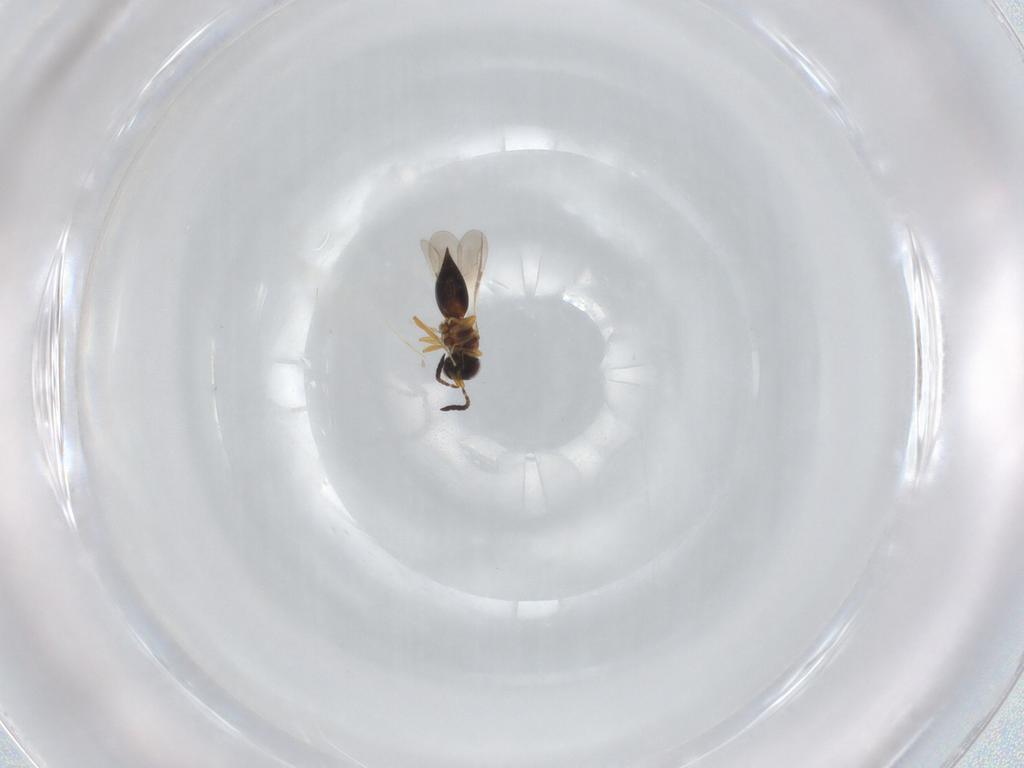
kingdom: Animalia
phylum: Arthropoda
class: Insecta
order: Hymenoptera
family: Ceraphronidae
